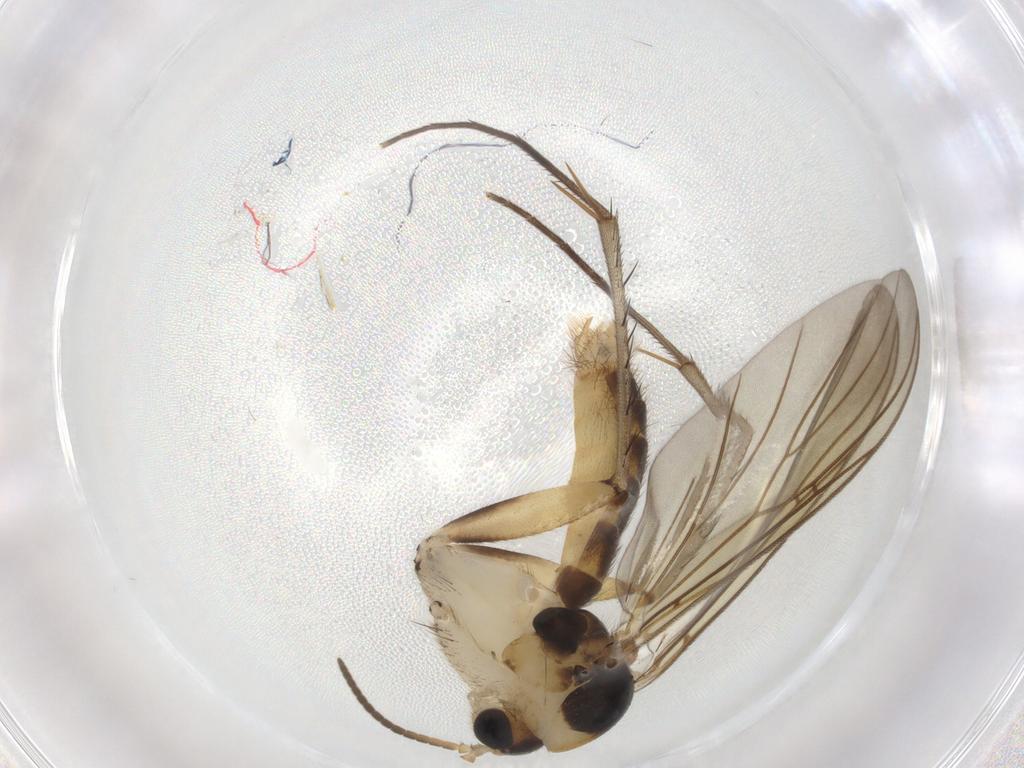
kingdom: Animalia
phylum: Arthropoda
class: Insecta
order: Diptera
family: Mycetophilidae
